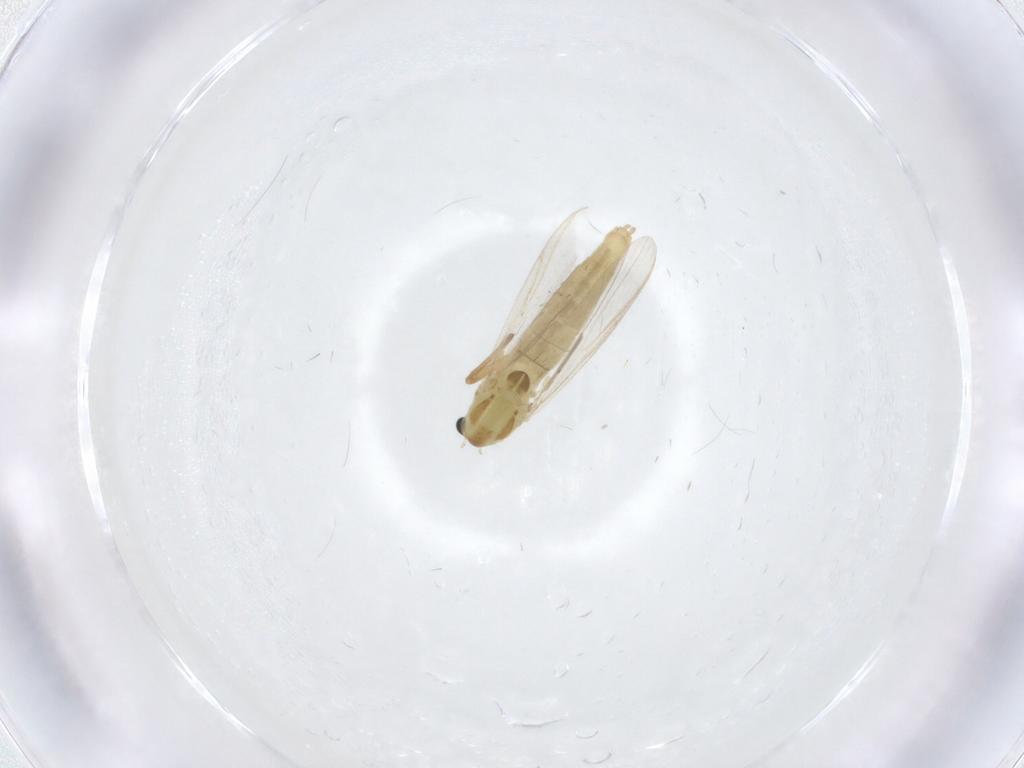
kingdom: Animalia
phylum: Arthropoda
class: Insecta
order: Diptera
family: Chironomidae
